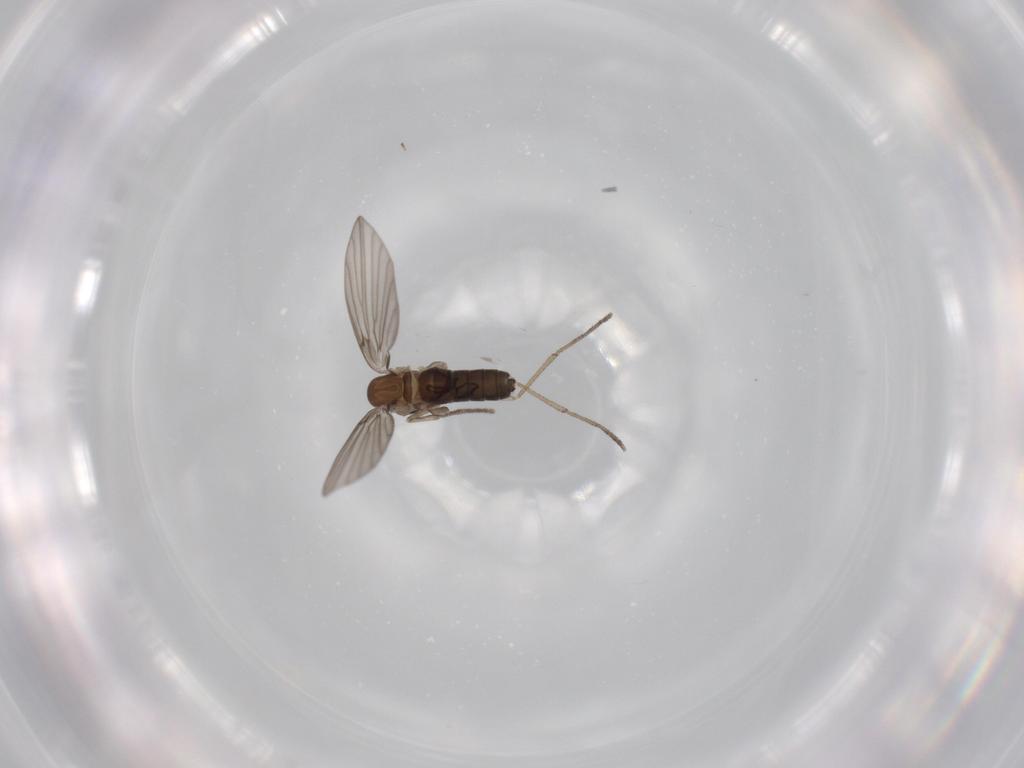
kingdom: Animalia
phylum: Arthropoda
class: Insecta
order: Diptera
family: Psychodidae
